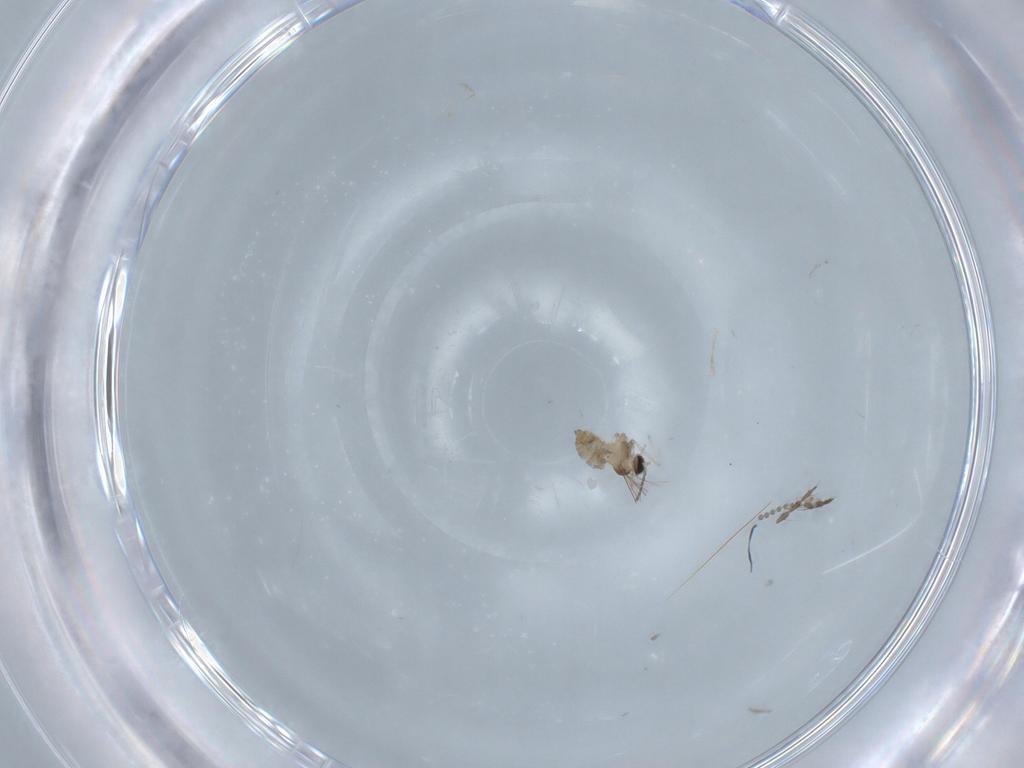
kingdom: Animalia
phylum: Arthropoda
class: Insecta
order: Diptera
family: Cecidomyiidae
